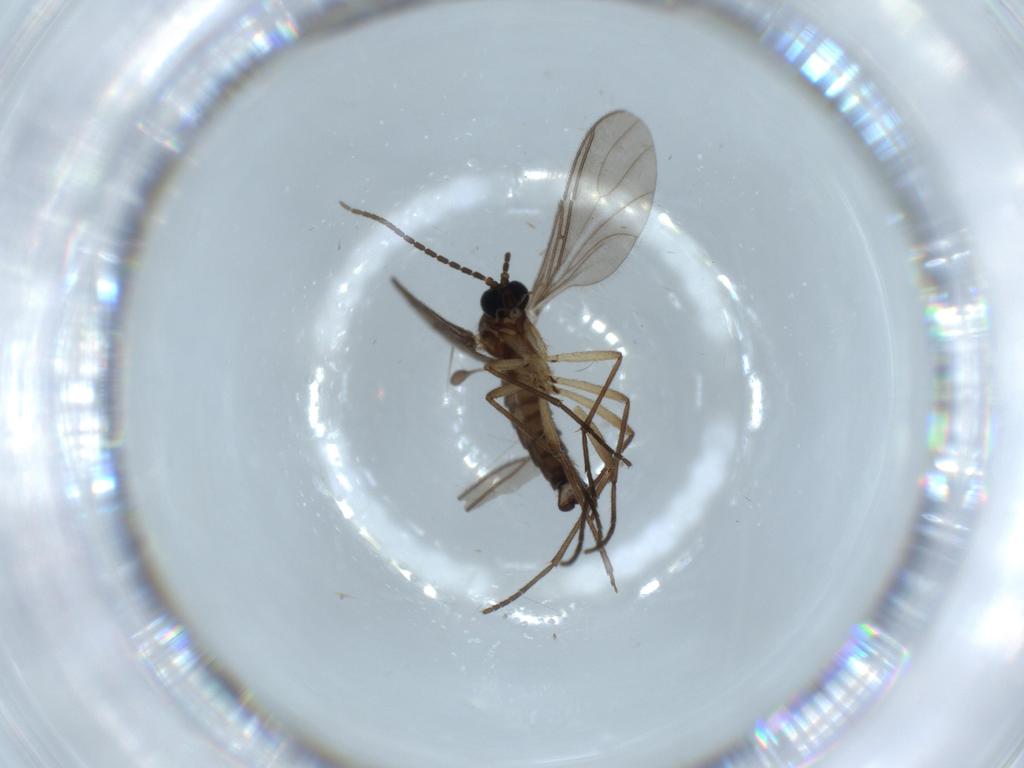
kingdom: Animalia
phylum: Arthropoda
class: Insecta
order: Diptera
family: Sciaridae
